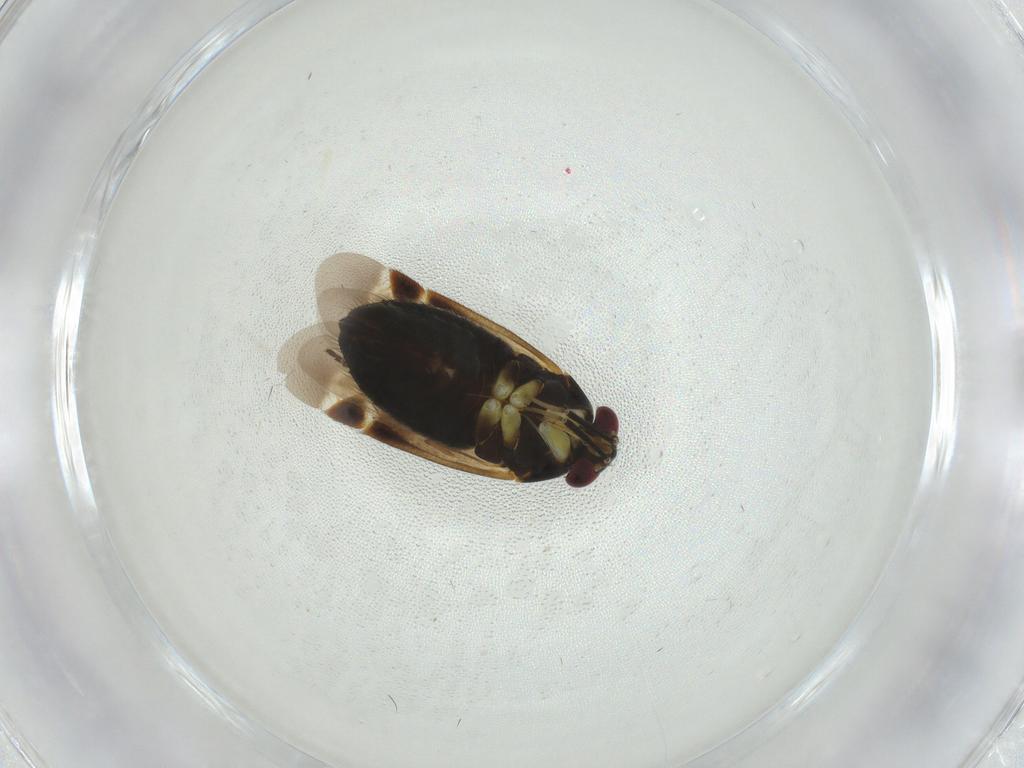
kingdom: Animalia
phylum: Arthropoda
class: Insecta
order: Hymenoptera
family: Braconidae
